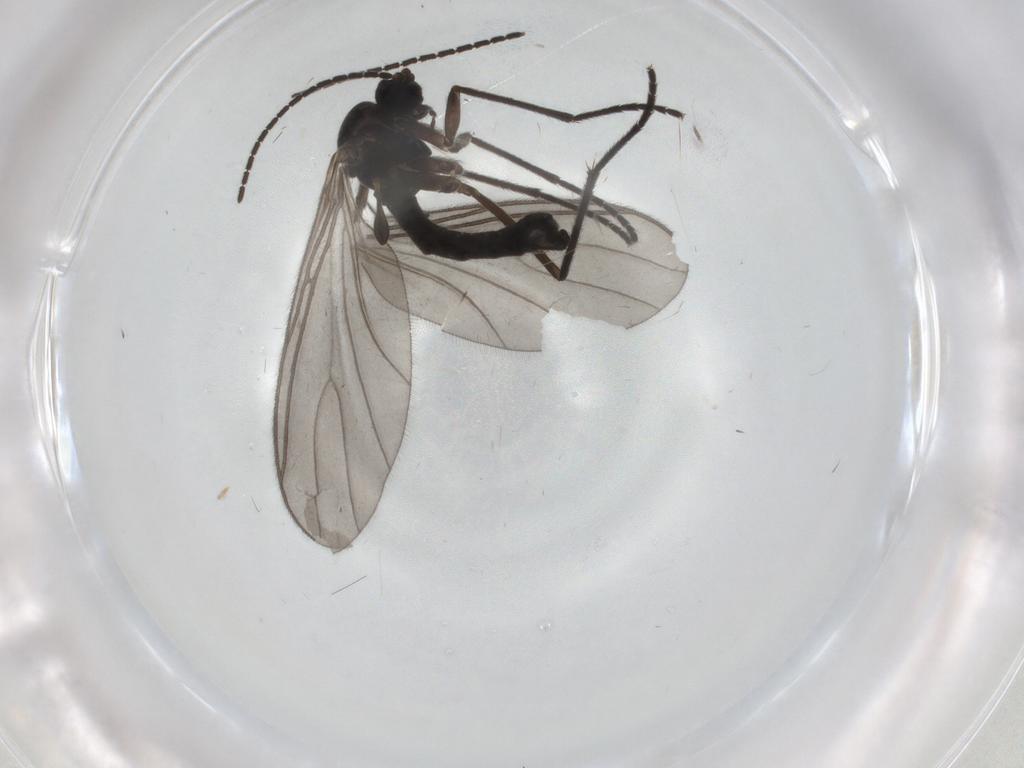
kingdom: Animalia
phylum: Arthropoda
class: Insecta
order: Diptera
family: Sciaridae
